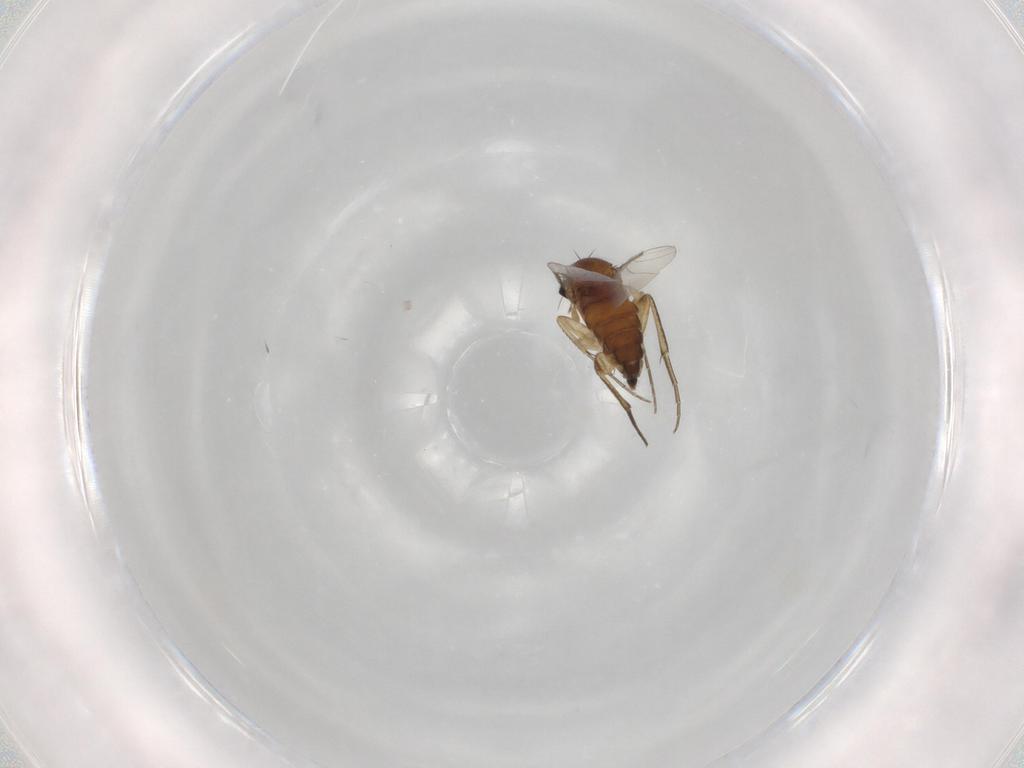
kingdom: Animalia
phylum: Arthropoda
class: Insecta
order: Diptera
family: Phoridae
